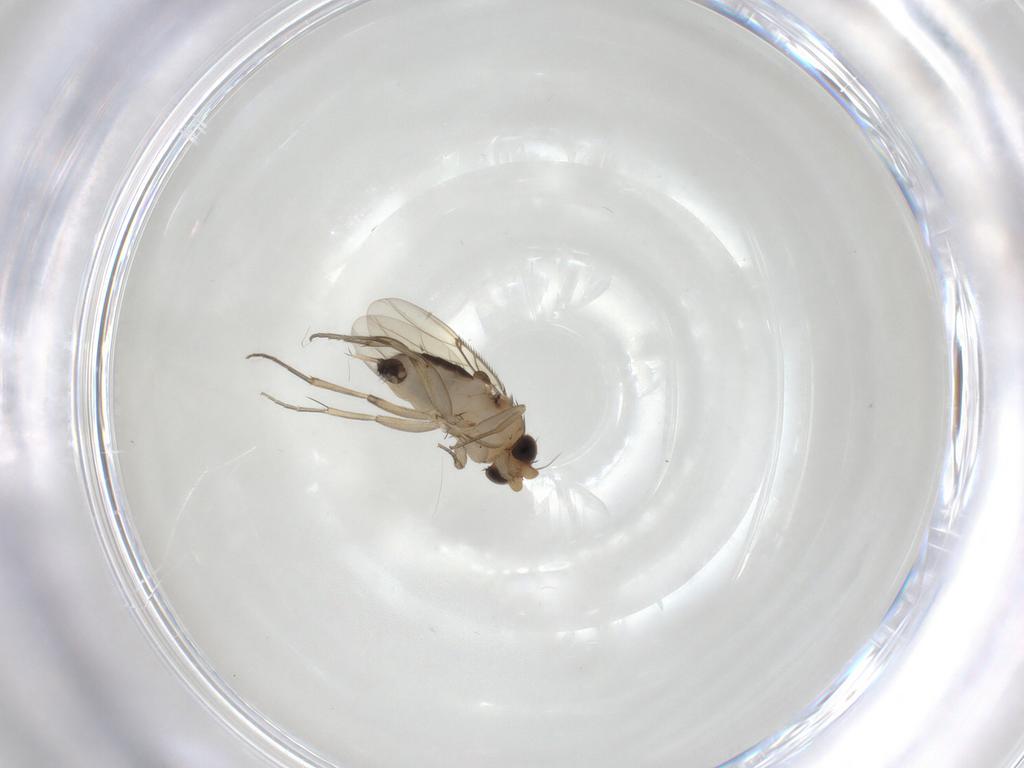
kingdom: Animalia
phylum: Arthropoda
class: Insecta
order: Diptera
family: Phoridae
